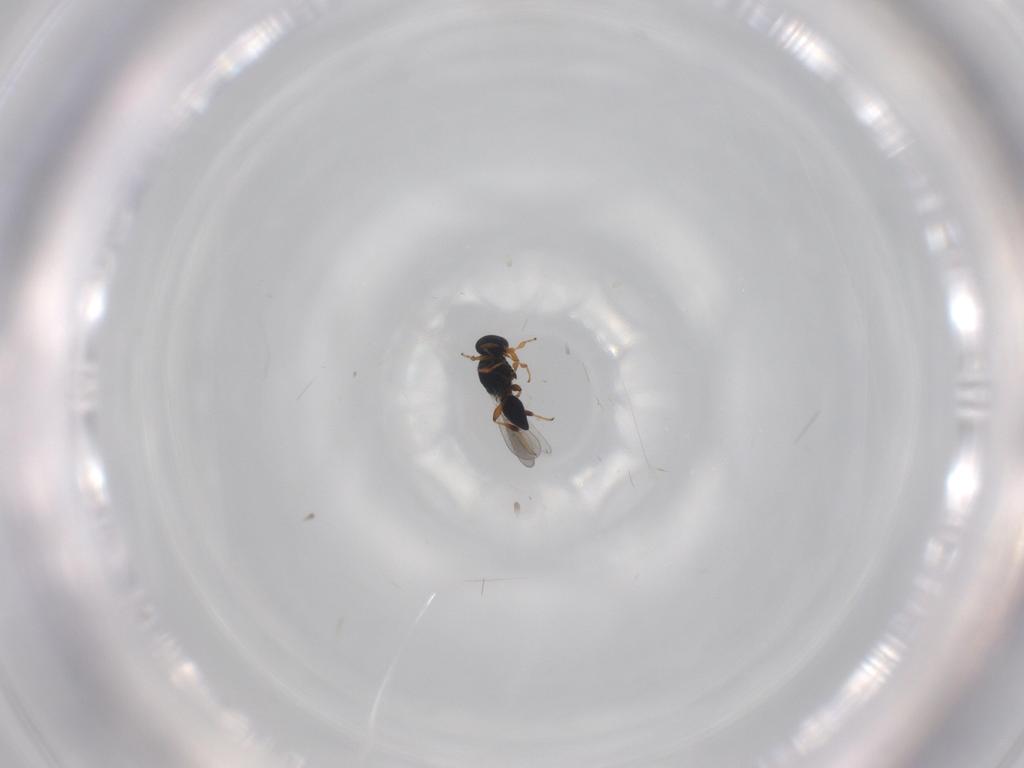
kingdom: Animalia
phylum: Arthropoda
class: Insecta
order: Hymenoptera
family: Platygastridae
